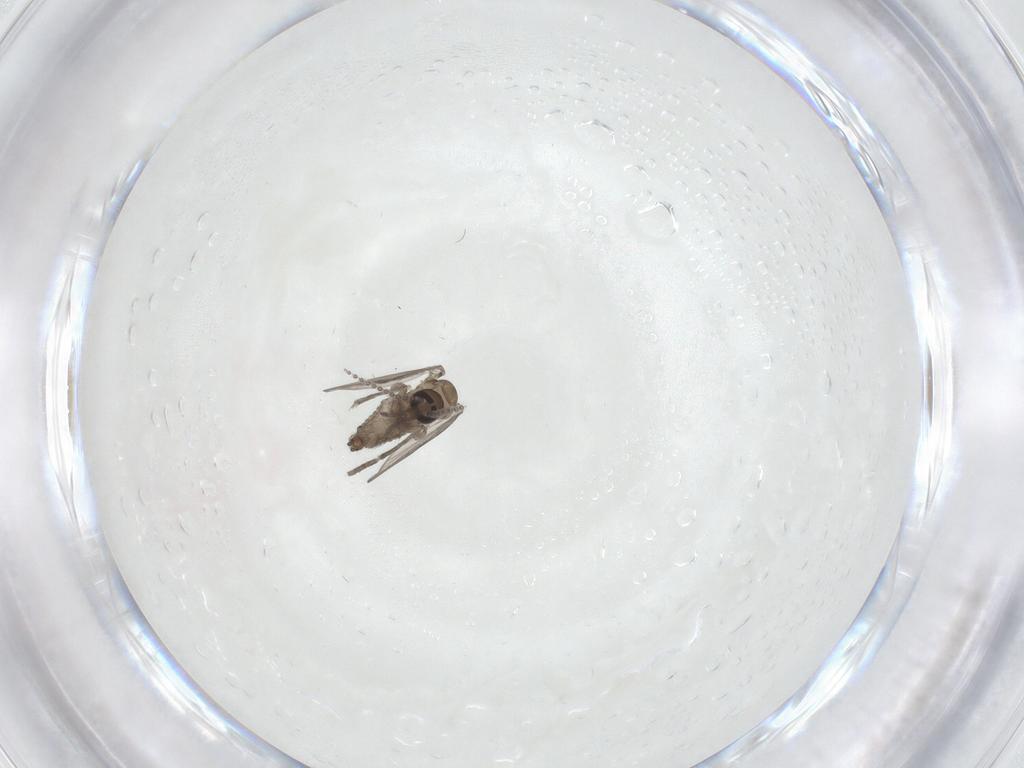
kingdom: Animalia
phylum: Arthropoda
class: Insecta
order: Diptera
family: Psychodidae
